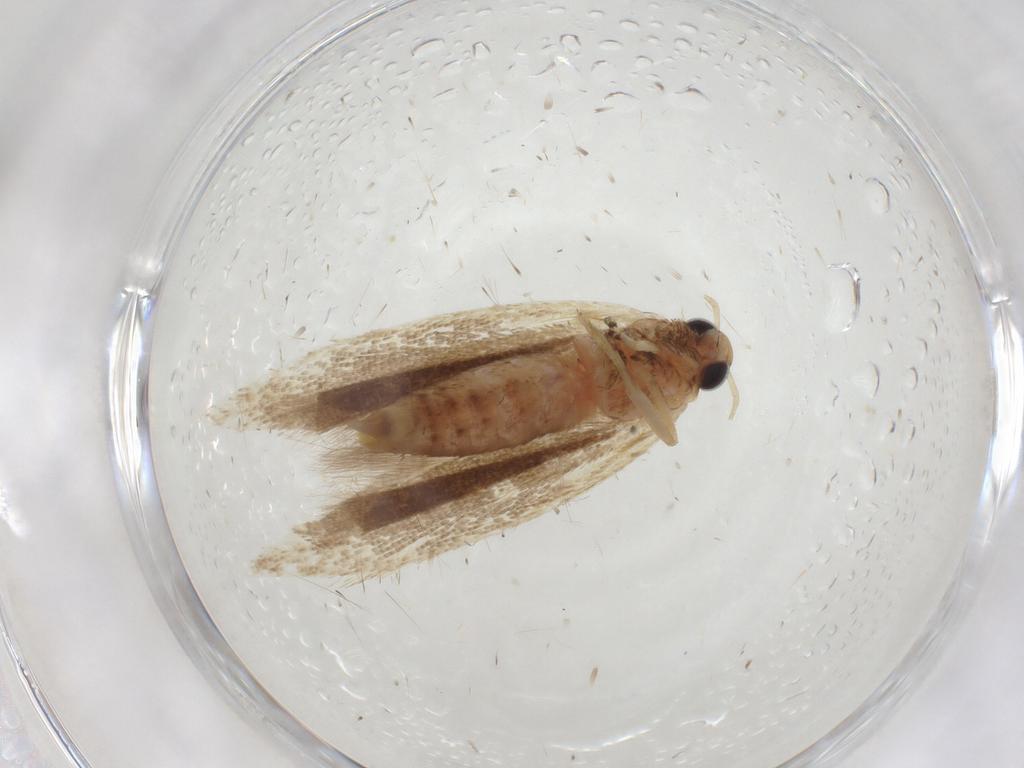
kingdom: Animalia
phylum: Arthropoda
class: Insecta
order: Lepidoptera
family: Gelechiidae
